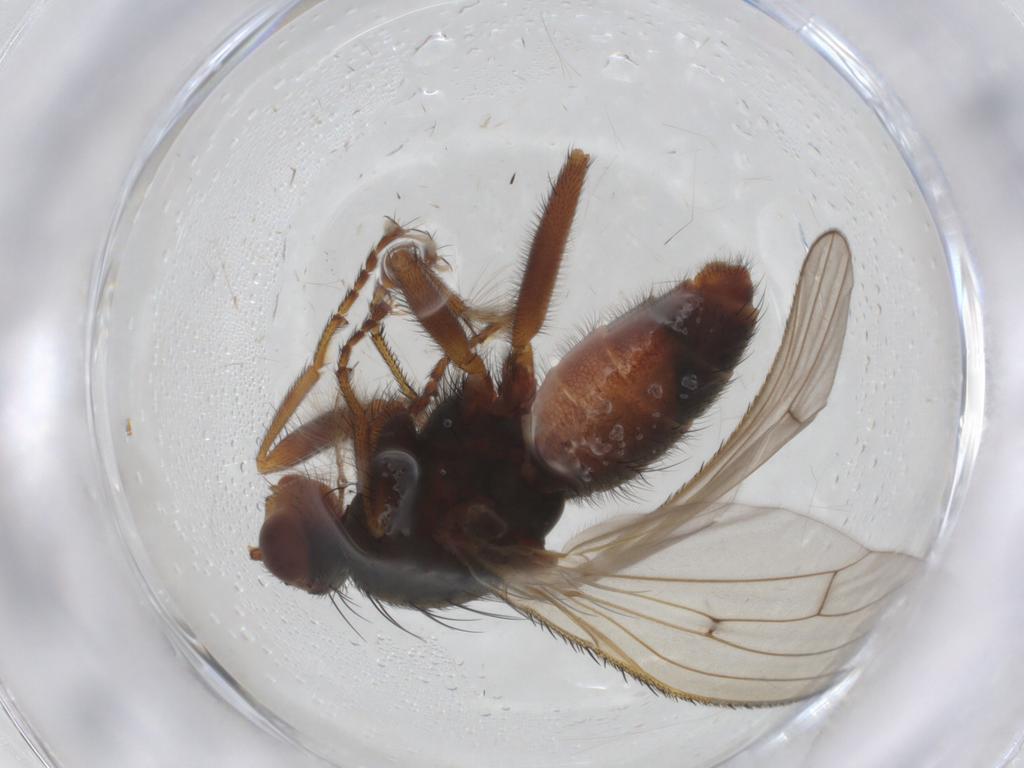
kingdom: Animalia
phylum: Arthropoda
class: Insecta
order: Diptera
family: Heleomyzidae
